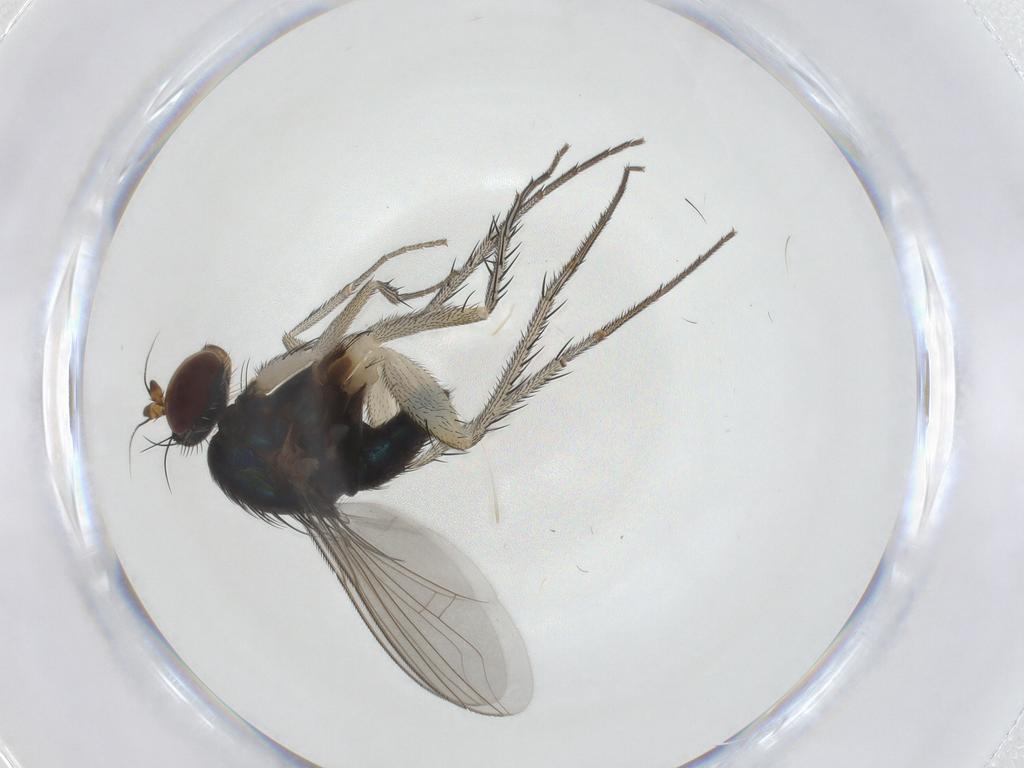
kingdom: Animalia
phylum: Arthropoda
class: Insecta
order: Diptera
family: Dolichopodidae
